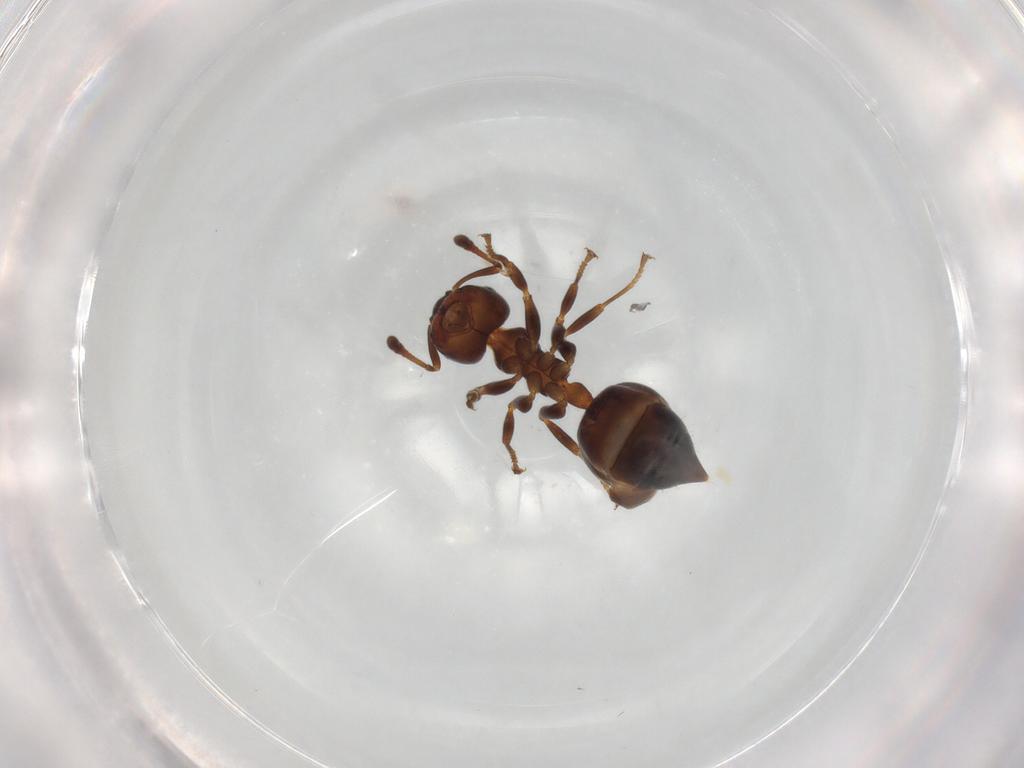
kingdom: Animalia
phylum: Arthropoda
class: Insecta
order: Hymenoptera
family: Formicidae
